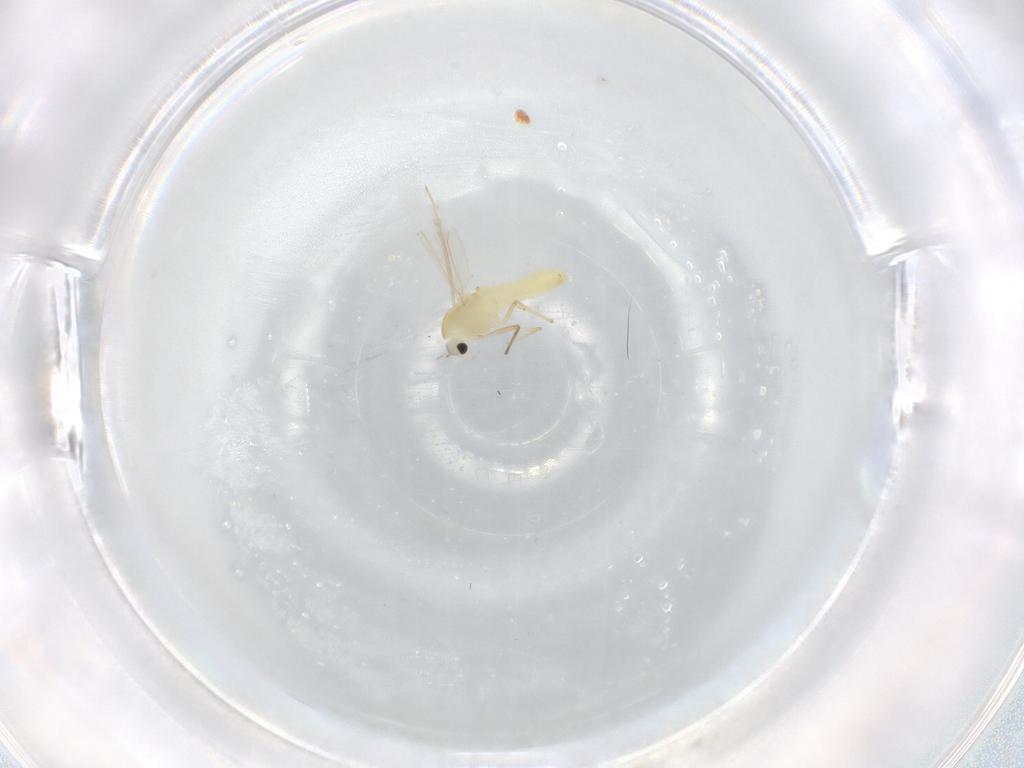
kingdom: Animalia
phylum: Arthropoda
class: Insecta
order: Diptera
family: Chironomidae
